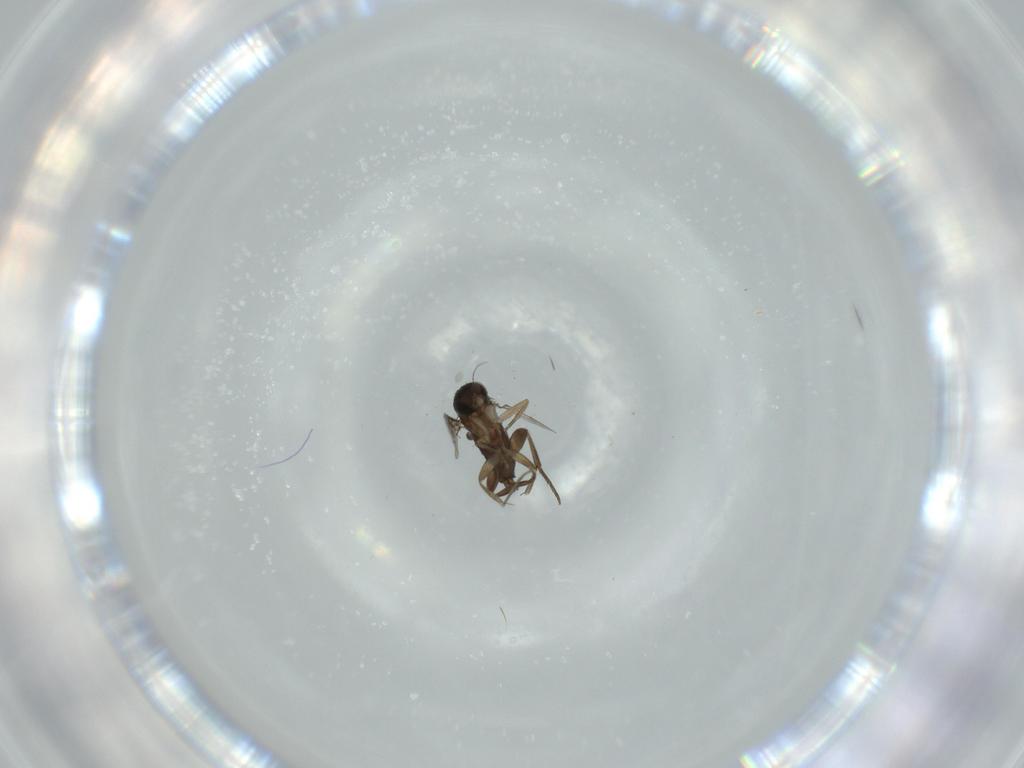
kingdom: Animalia
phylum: Arthropoda
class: Insecta
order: Diptera
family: Phoridae
